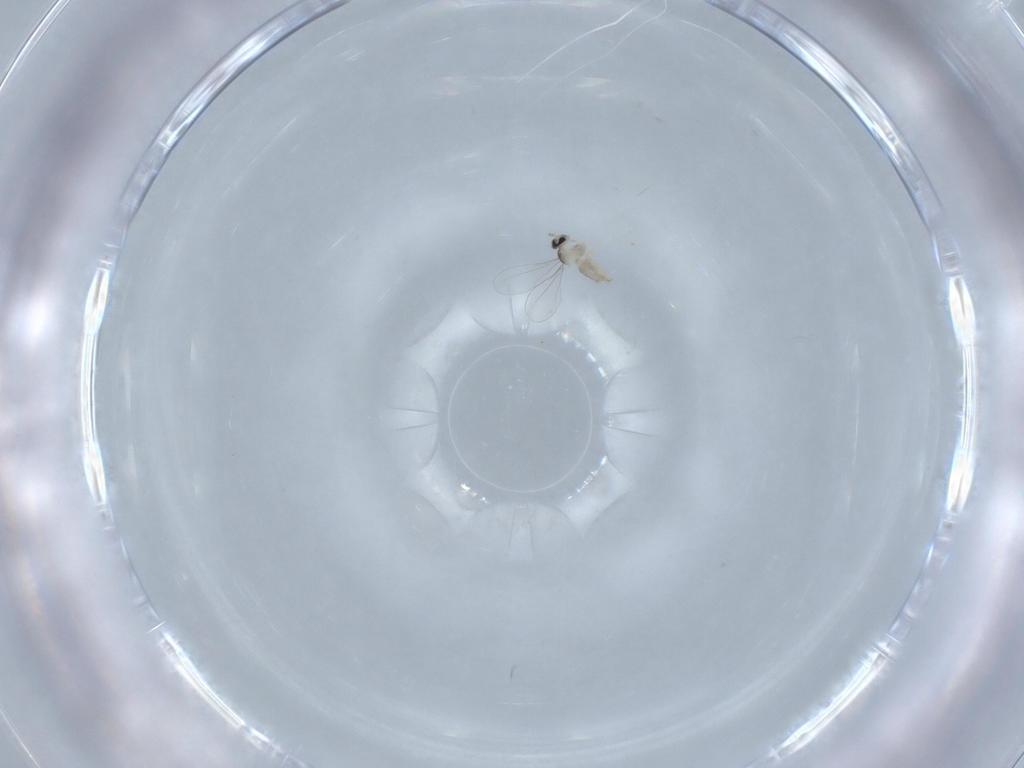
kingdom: Animalia
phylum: Arthropoda
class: Insecta
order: Diptera
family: Cecidomyiidae
